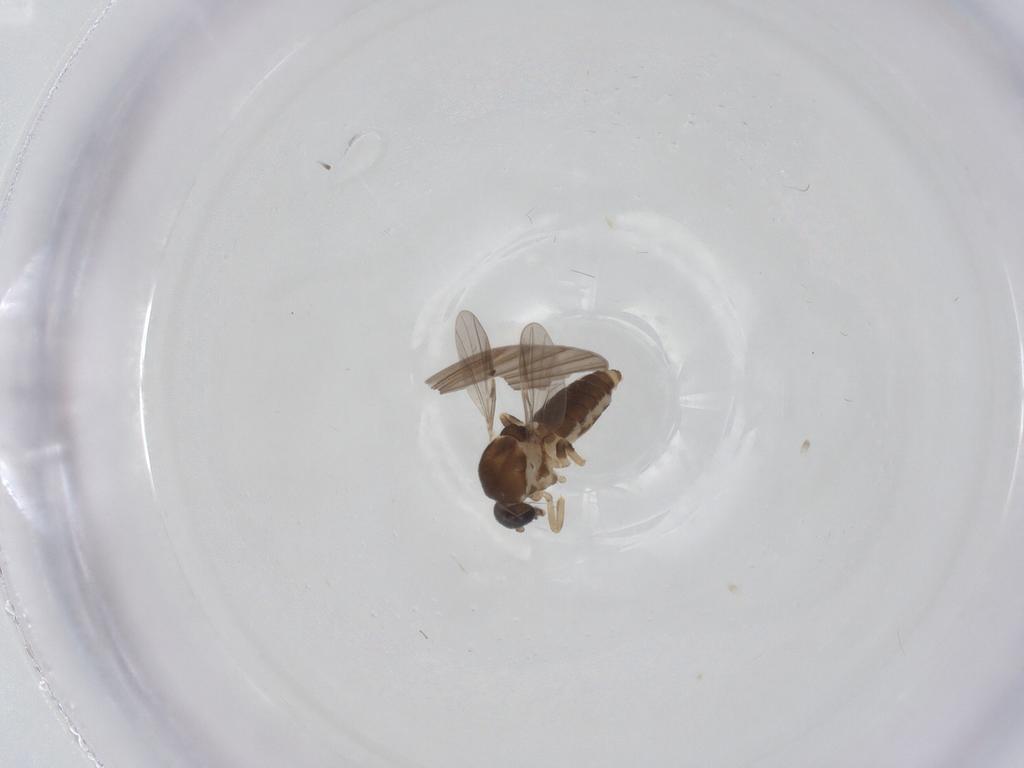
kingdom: Animalia
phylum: Arthropoda
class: Insecta
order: Diptera
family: Ceratopogonidae
